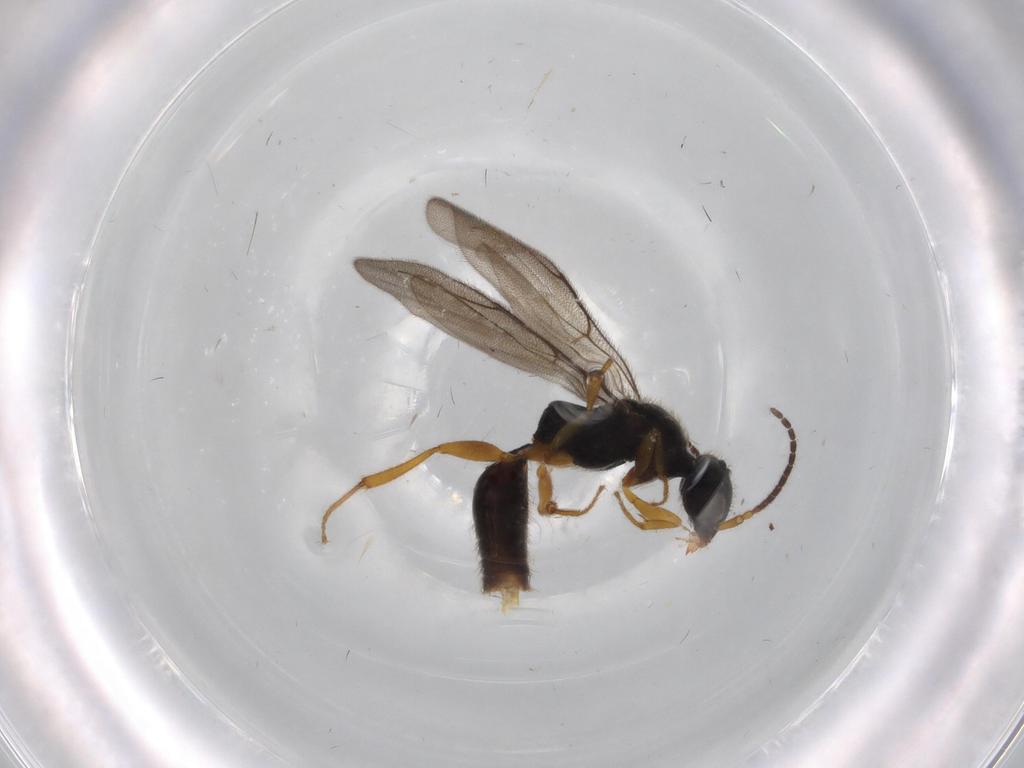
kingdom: Animalia
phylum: Arthropoda
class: Insecta
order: Hymenoptera
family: Bethylidae
